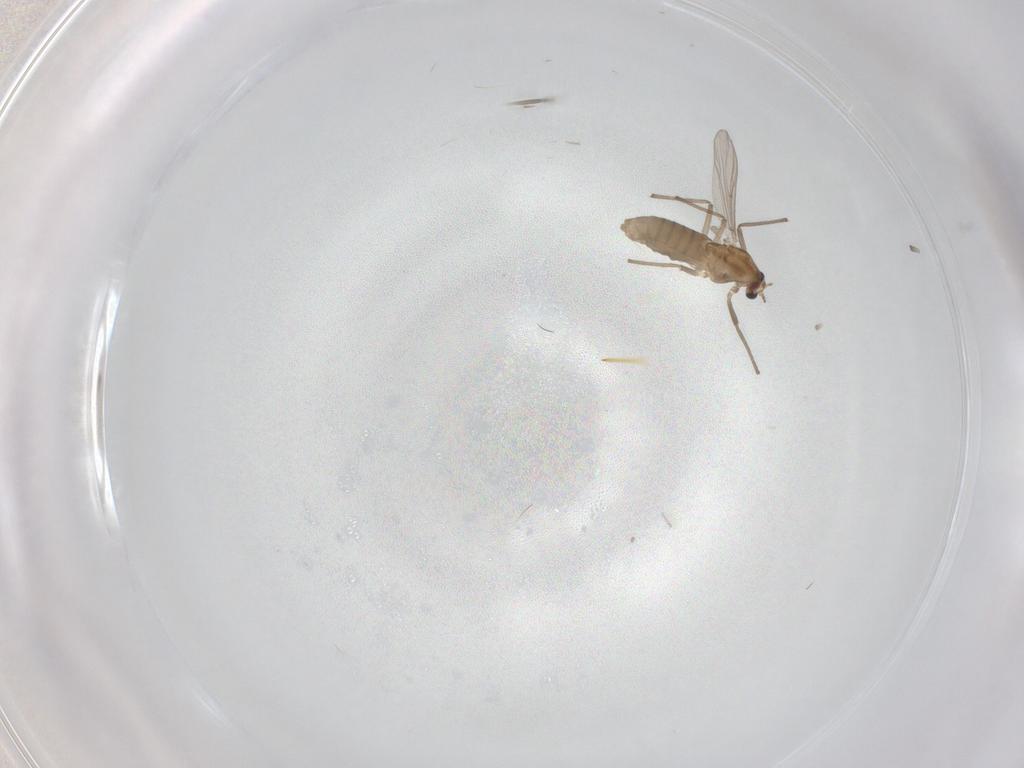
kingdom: Animalia
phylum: Arthropoda
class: Insecta
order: Diptera
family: Chironomidae
